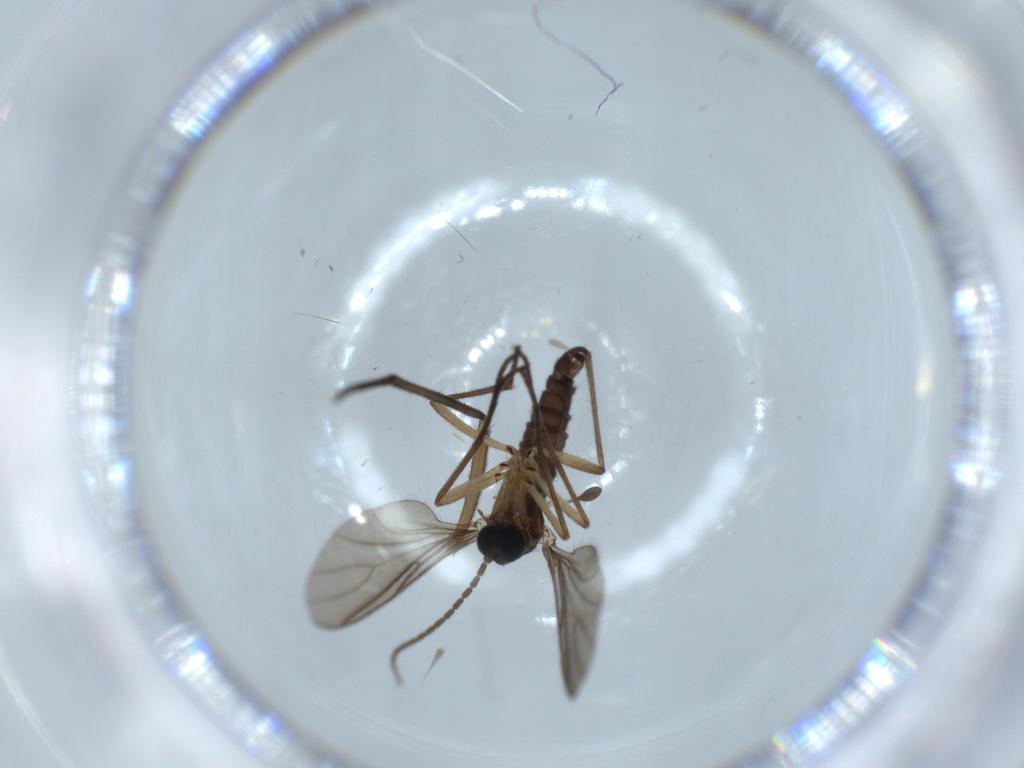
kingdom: Animalia
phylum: Arthropoda
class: Insecta
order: Diptera
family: Sciaridae
